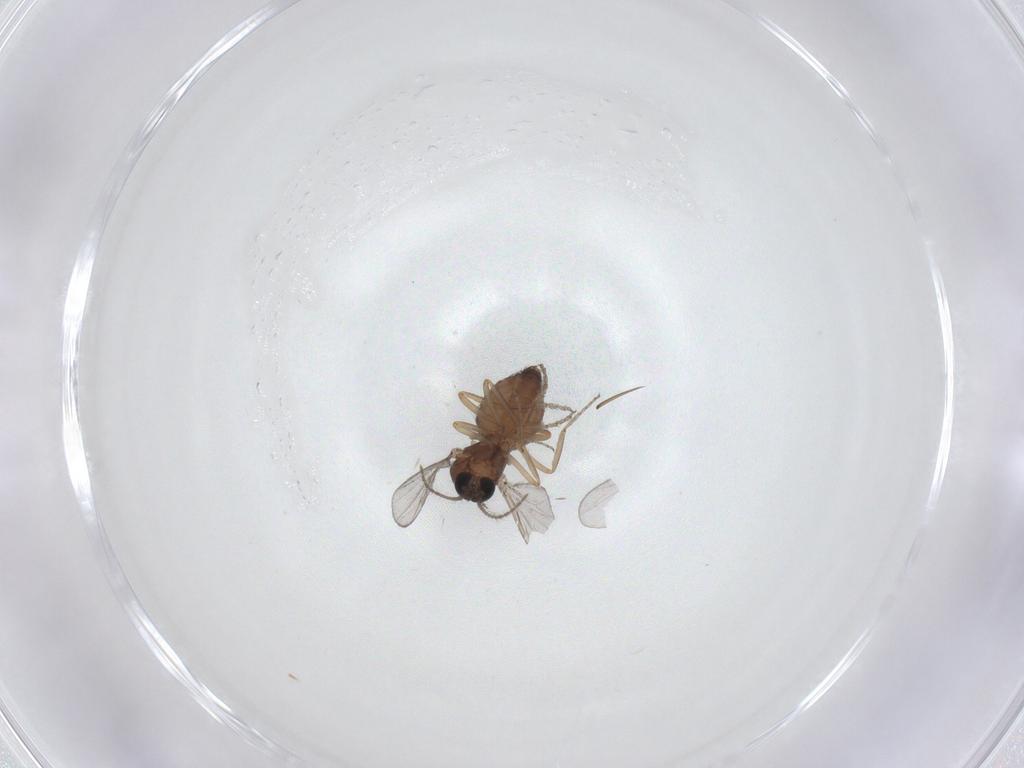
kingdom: Animalia
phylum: Arthropoda
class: Insecta
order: Diptera
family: Ceratopogonidae
